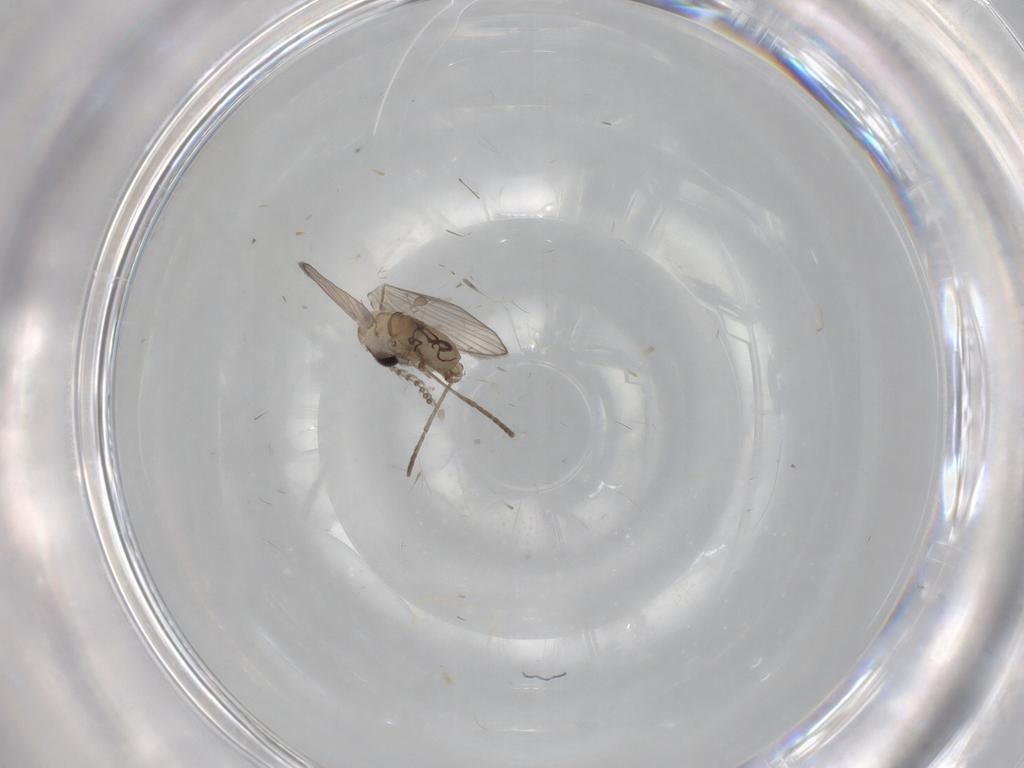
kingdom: Animalia
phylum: Arthropoda
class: Insecta
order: Diptera
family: Psychodidae
